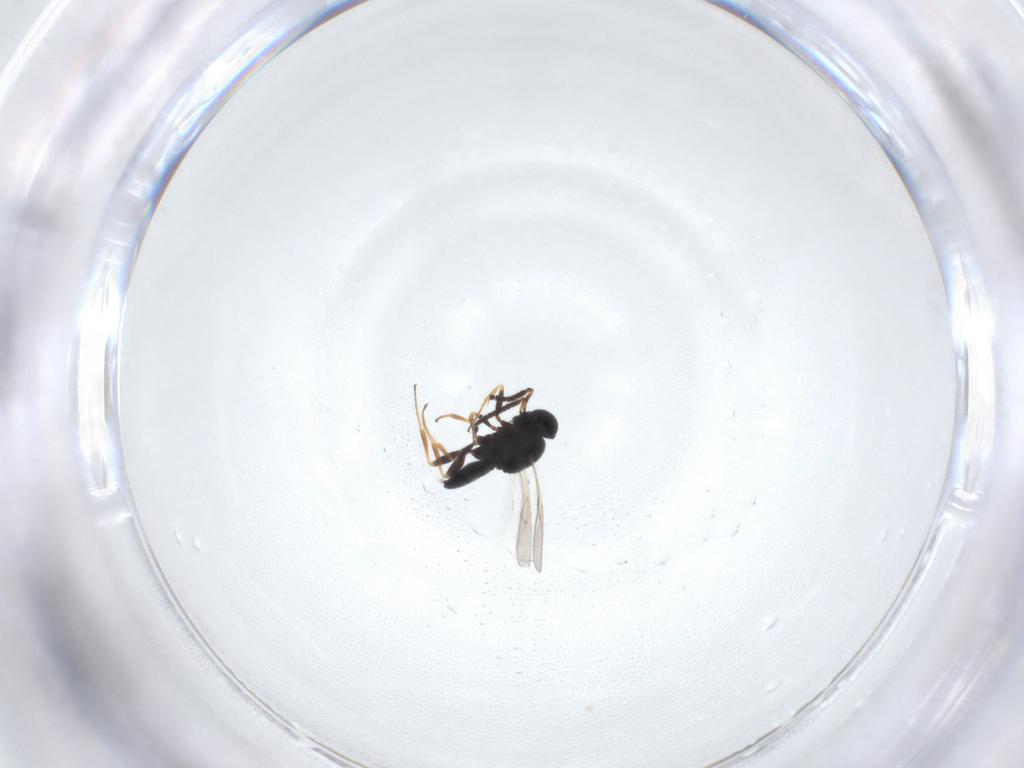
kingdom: Animalia
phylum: Arthropoda
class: Insecta
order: Hymenoptera
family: Scelionidae
